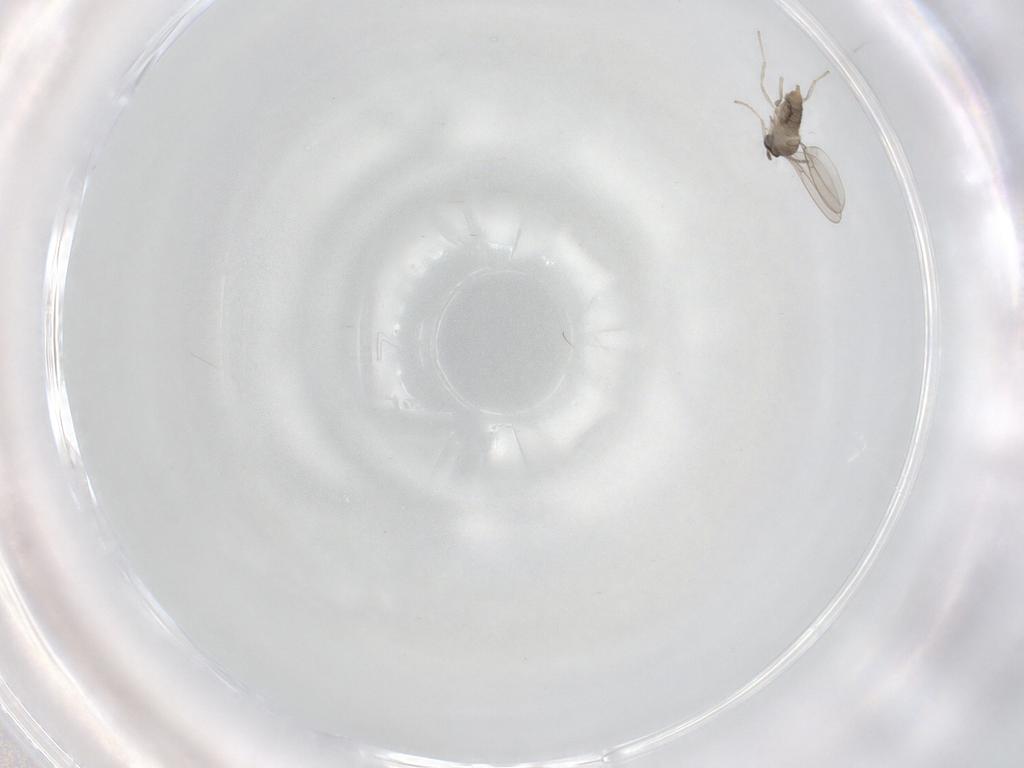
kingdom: Animalia
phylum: Arthropoda
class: Insecta
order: Diptera
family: Cecidomyiidae
